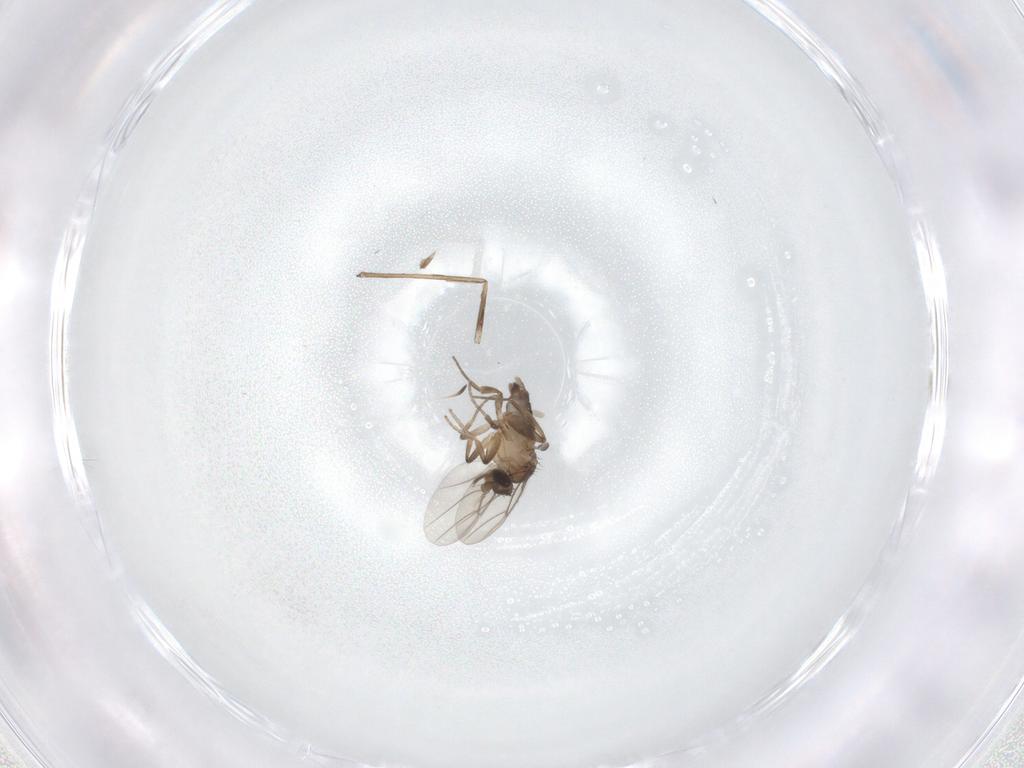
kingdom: Animalia
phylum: Arthropoda
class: Insecta
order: Diptera
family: Phoridae
